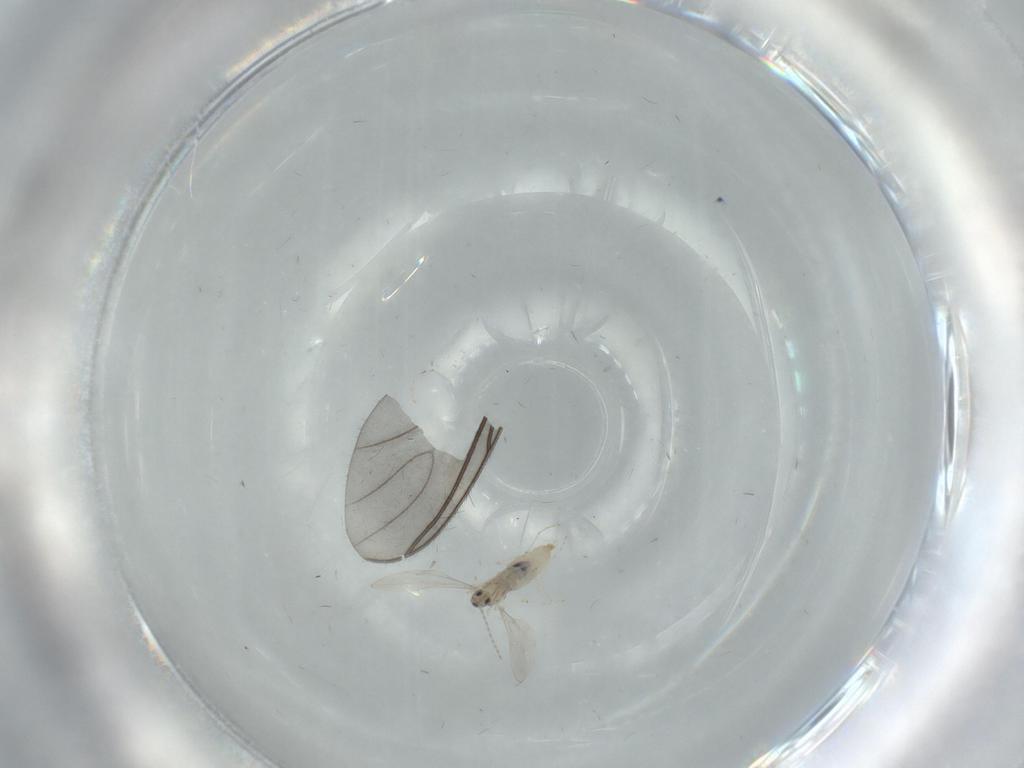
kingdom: Animalia
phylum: Arthropoda
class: Insecta
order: Diptera
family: Cecidomyiidae
